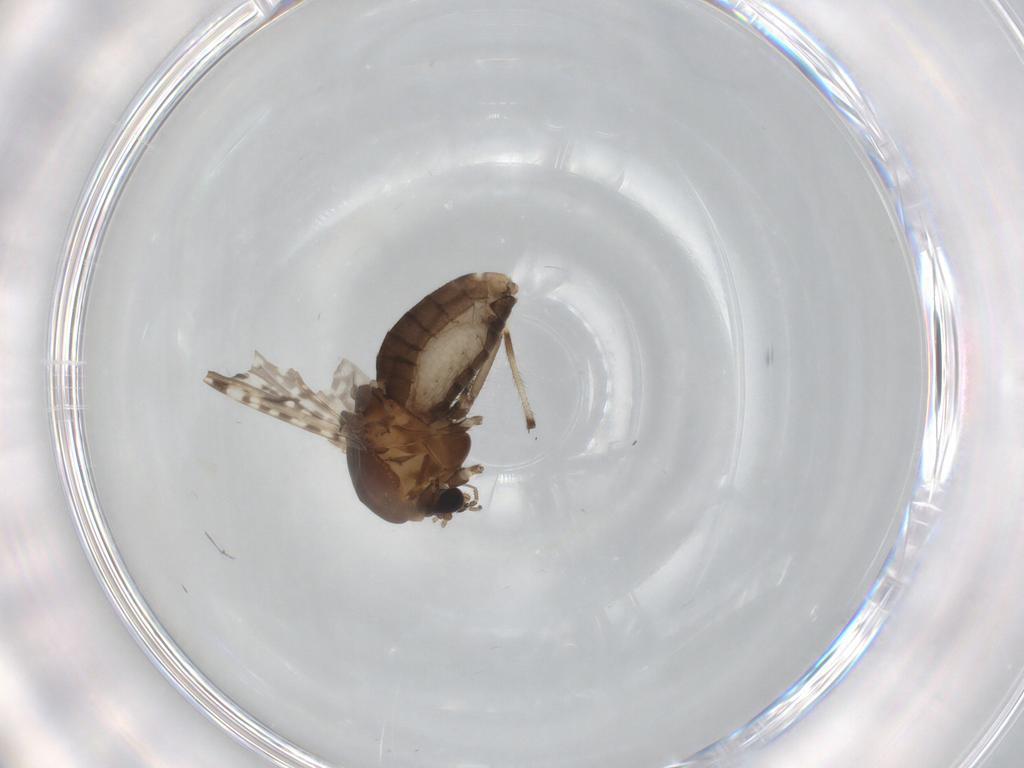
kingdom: Animalia
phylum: Arthropoda
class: Insecta
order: Diptera
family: Chironomidae
